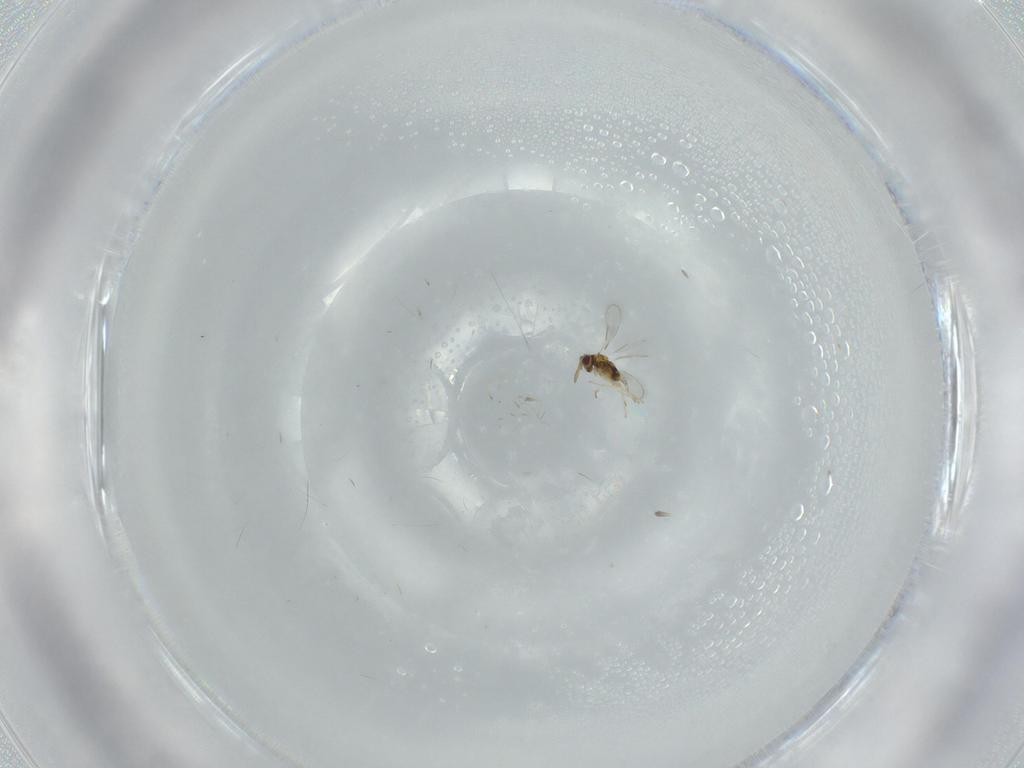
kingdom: Animalia
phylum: Arthropoda
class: Insecta
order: Hymenoptera
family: Aphelinidae
